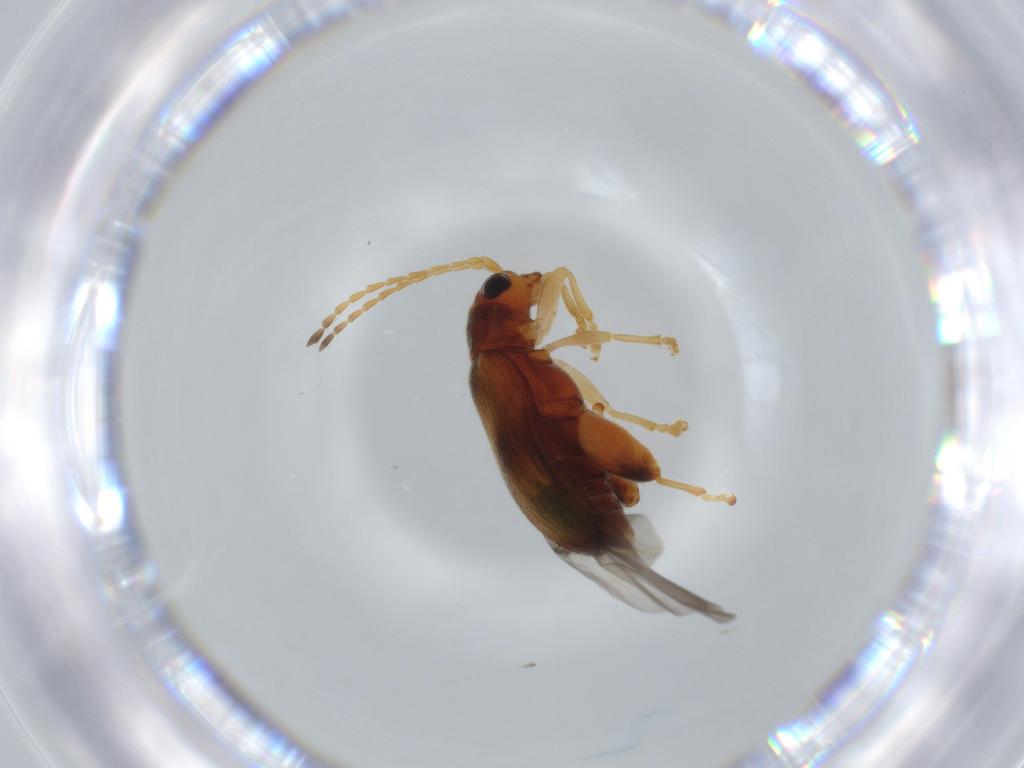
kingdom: Animalia
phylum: Arthropoda
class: Insecta
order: Coleoptera
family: Chrysomelidae
